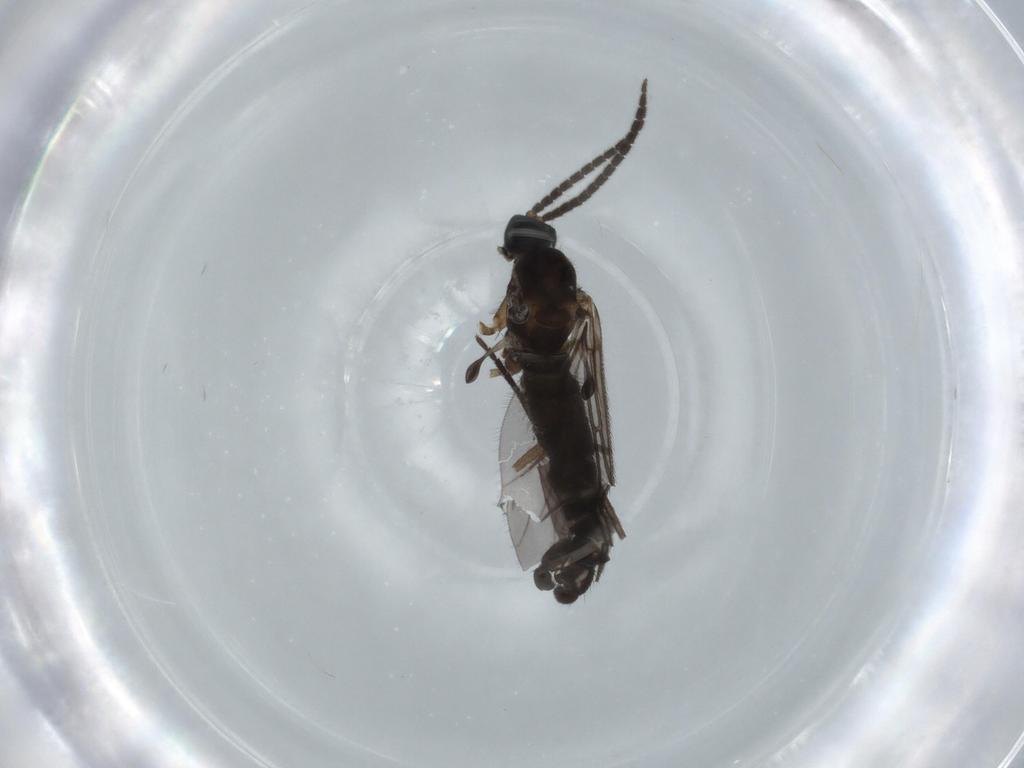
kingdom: Animalia
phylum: Arthropoda
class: Insecta
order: Diptera
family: Sciaridae
